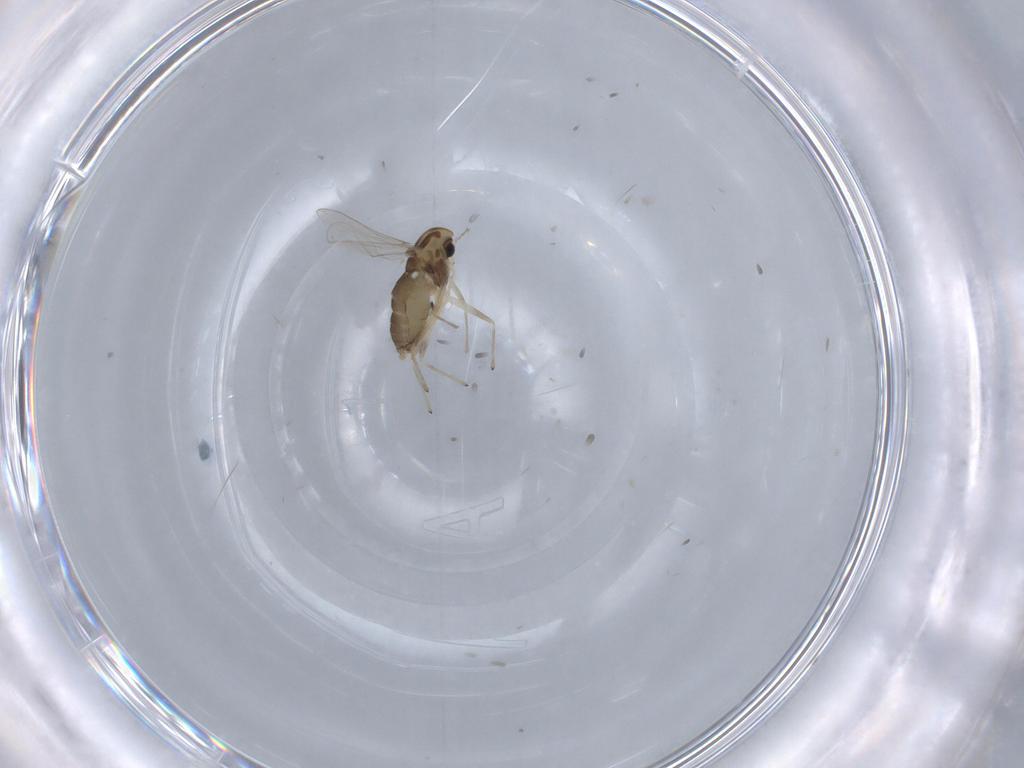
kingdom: Animalia
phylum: Arthropoda
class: Insecta
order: Diptera
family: Chironomidae
